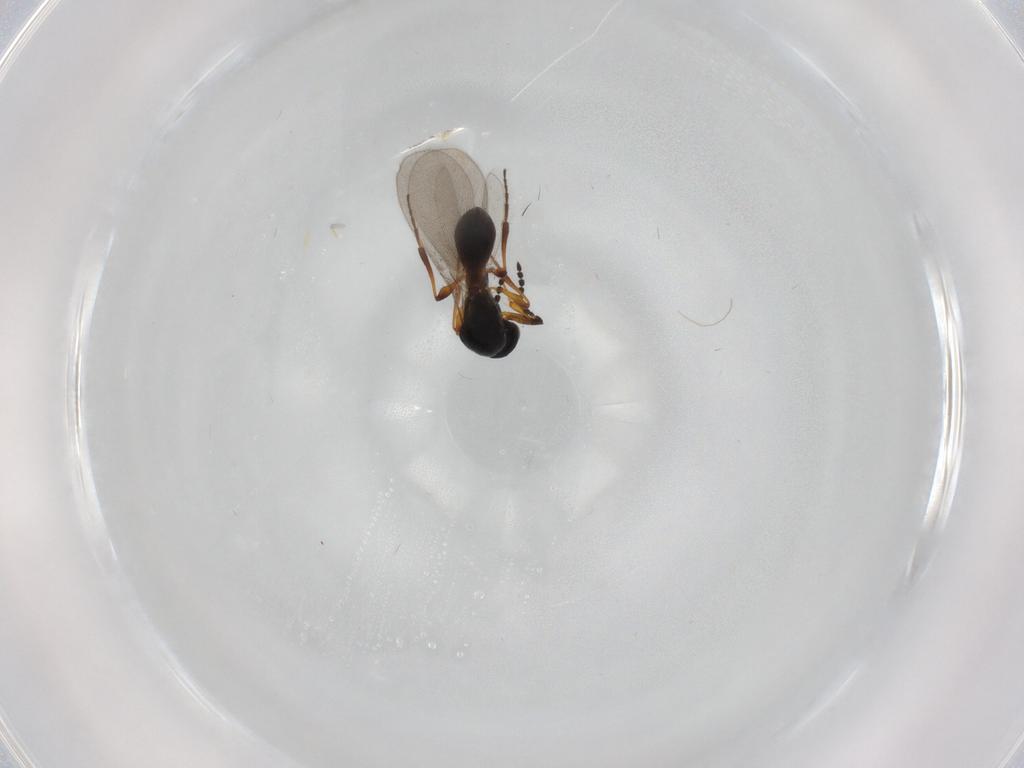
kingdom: Animalia
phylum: Arthropoda
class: Insecta
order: Hymenoptera
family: Platygastridae
